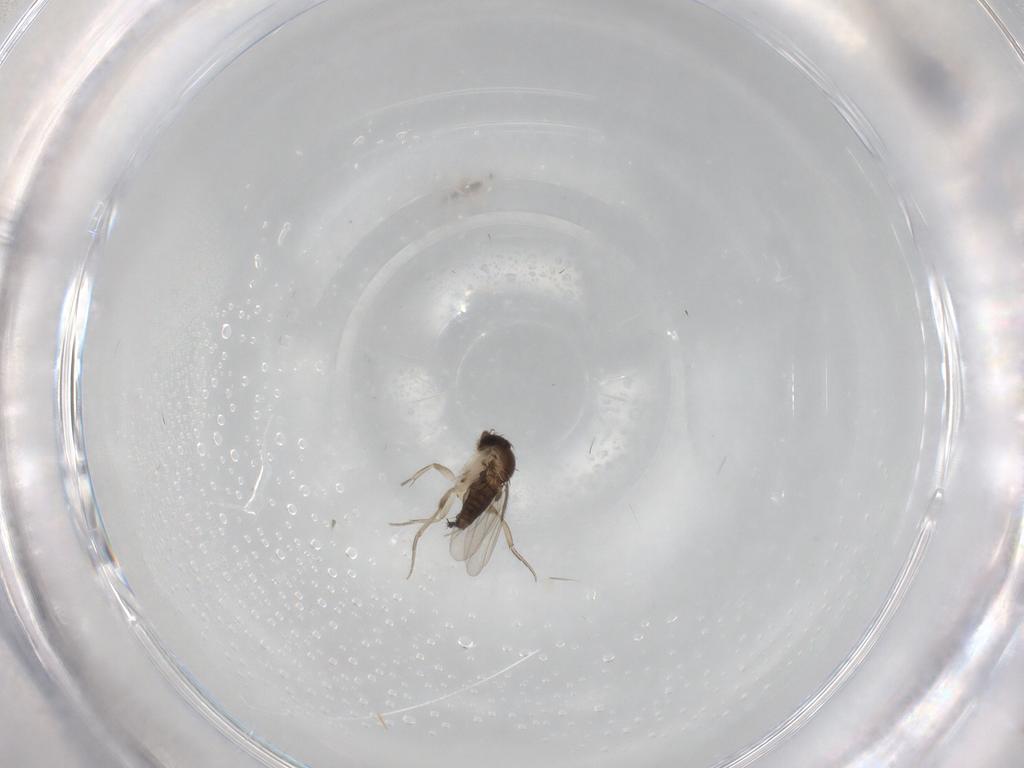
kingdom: Animalia
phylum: Arthropoda
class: Insecta
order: Diptera
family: Phoridae
